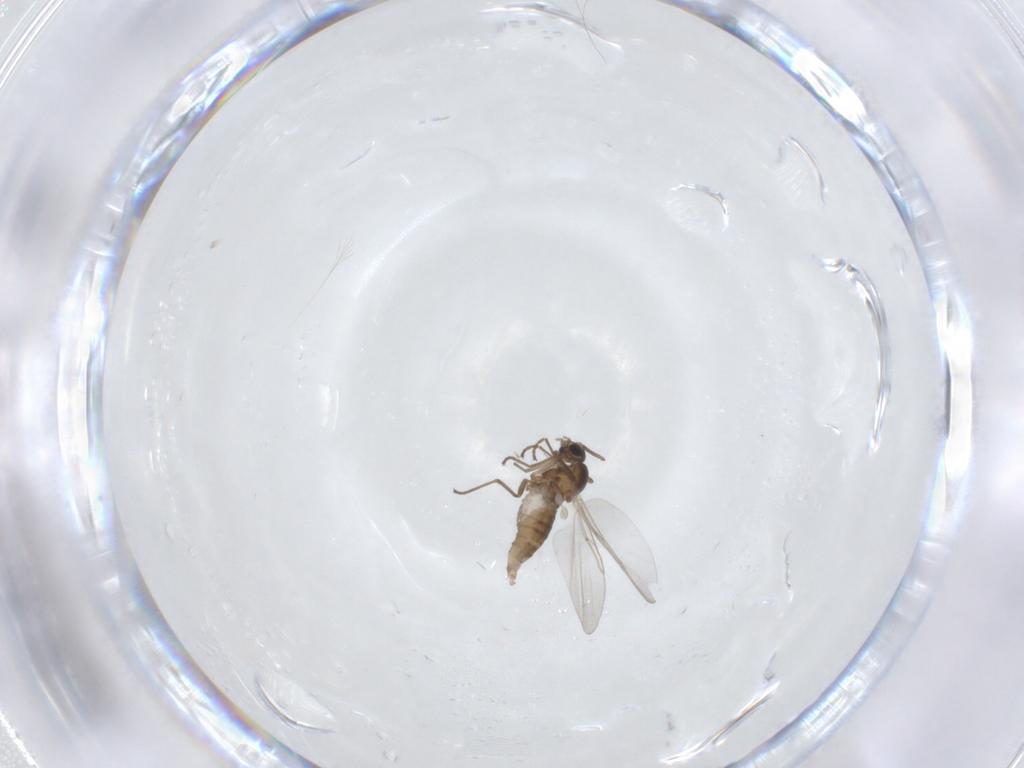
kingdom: Animalia
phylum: Arthropoda
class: Insecta
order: Diptera
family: Cecidomyiidae
